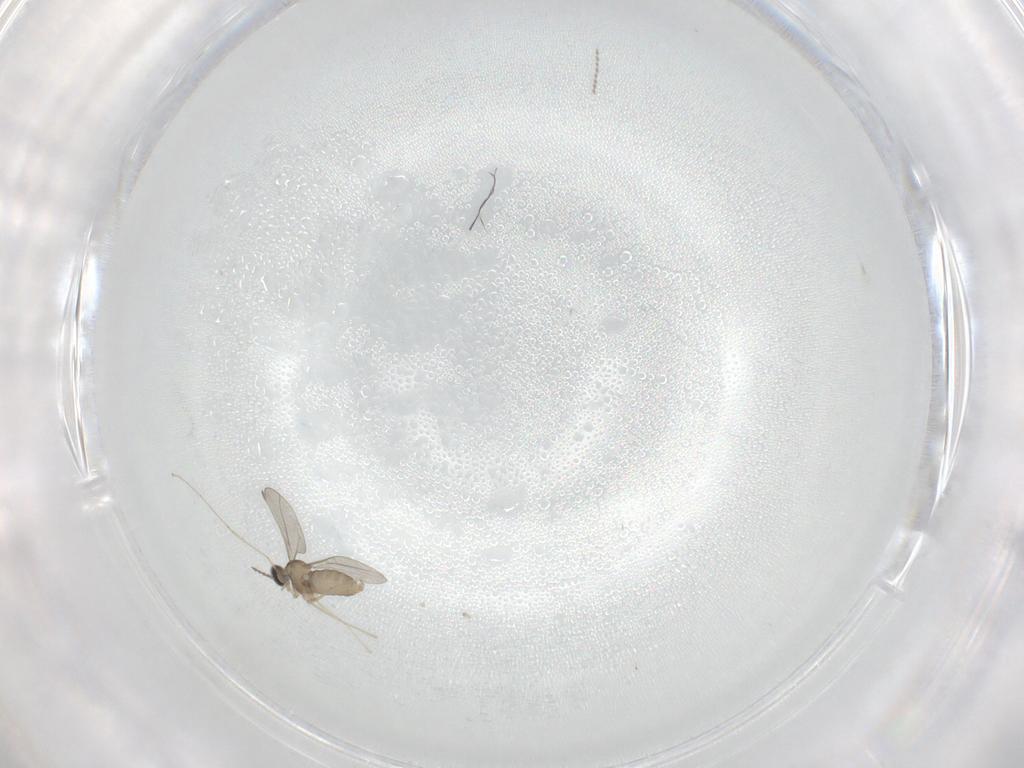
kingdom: Animalia
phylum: Arthropoda
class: Insecta
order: Diptera
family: Psychodidae
